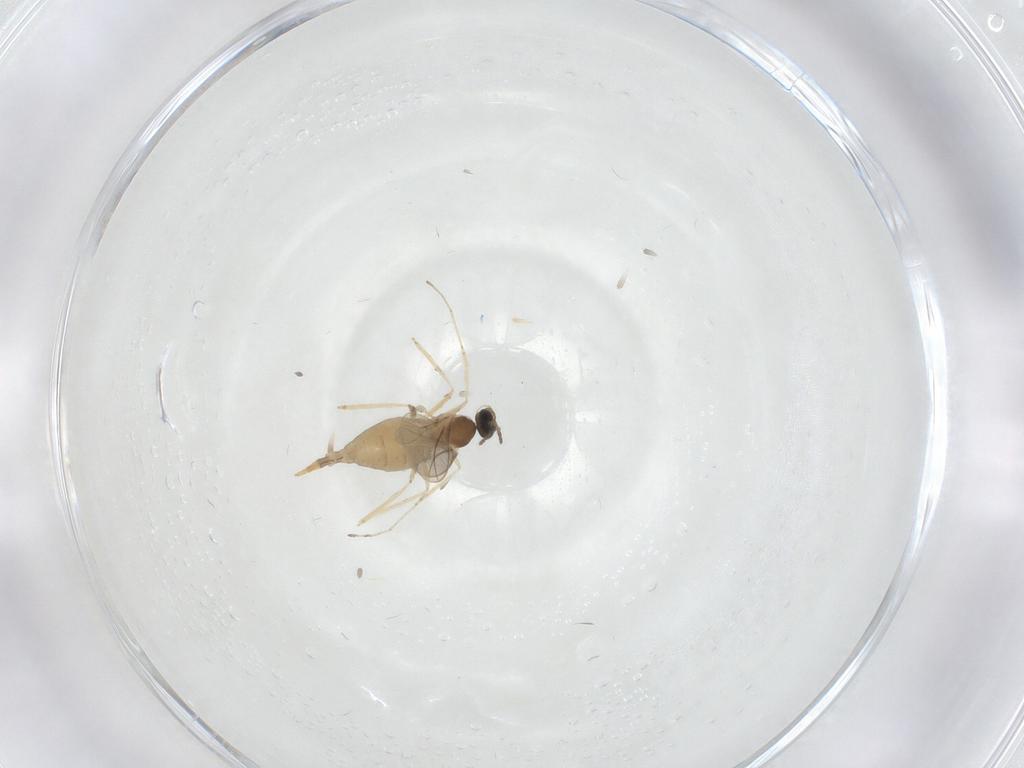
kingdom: Animalia
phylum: Arthropoda
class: Insecta
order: Diptera
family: Cecidomyiidae
